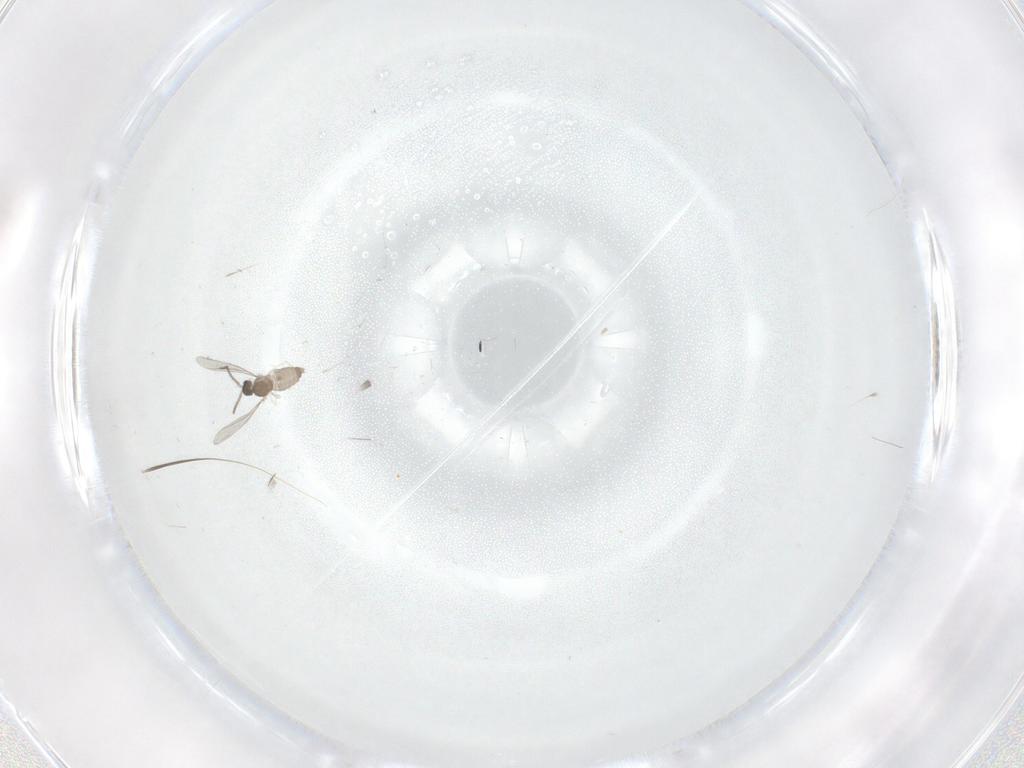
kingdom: Animalia
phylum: Arthropoda
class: Insecta
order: Diptera
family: Cecidomyiidae
